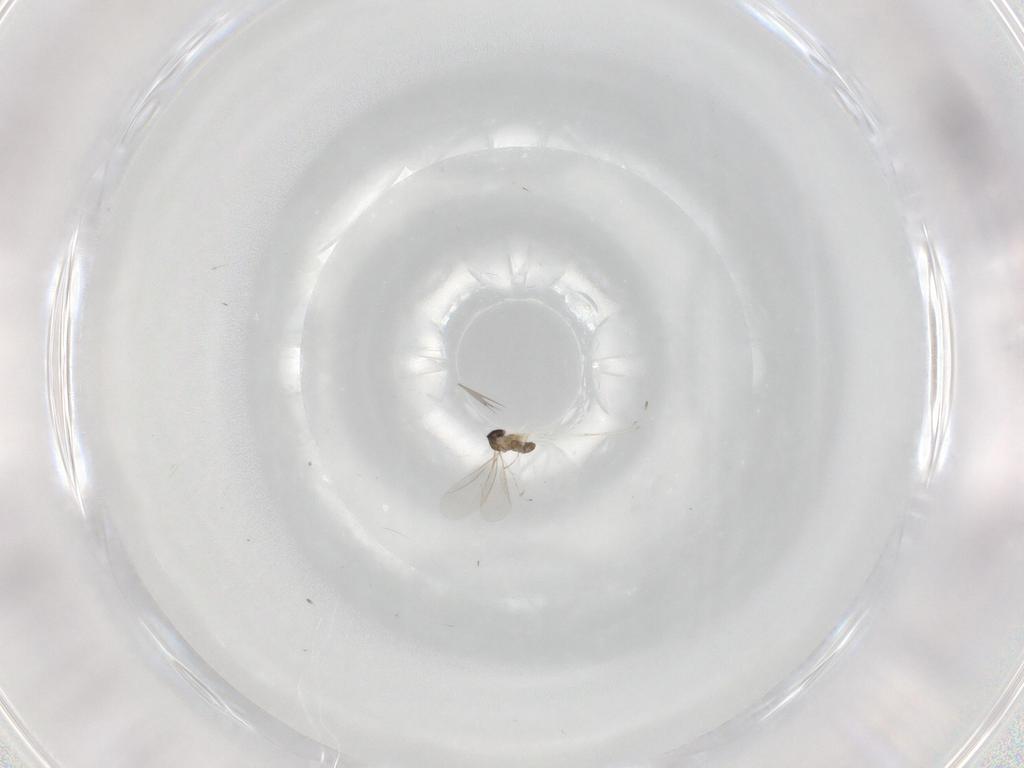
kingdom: Animalia
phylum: Arthropoda
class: Insecta
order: Diptera
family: Cecidomyiidae
